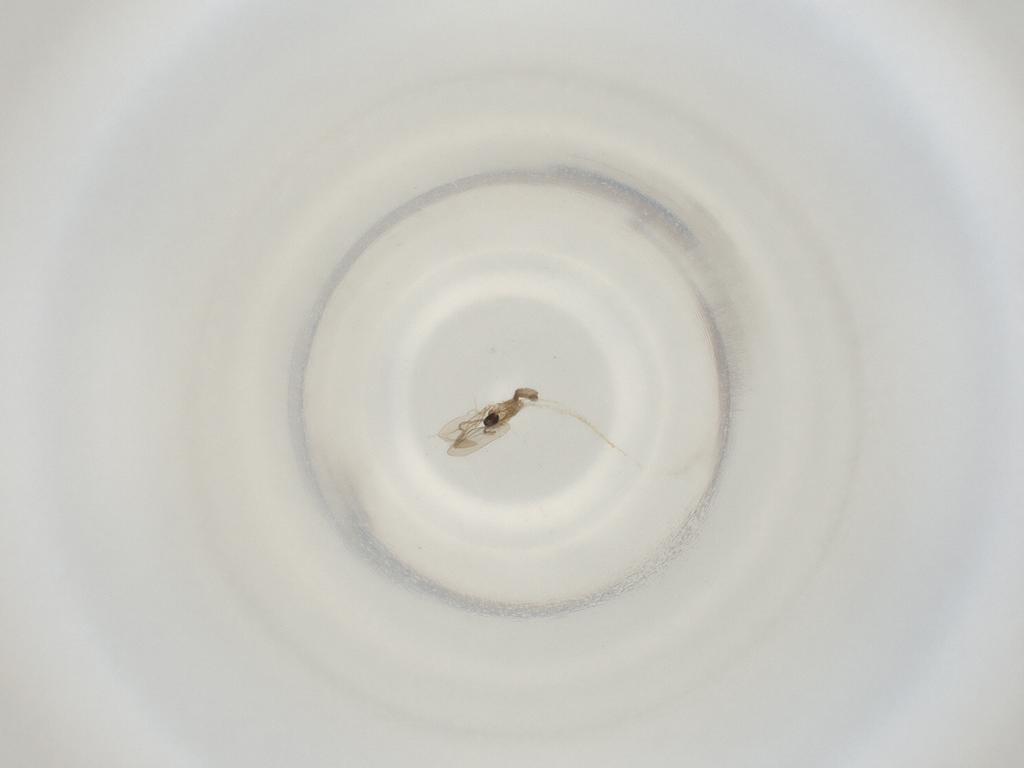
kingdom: Animalia
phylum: Arthropoda
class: Insecta
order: Diptera
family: Cecidomyiidae
